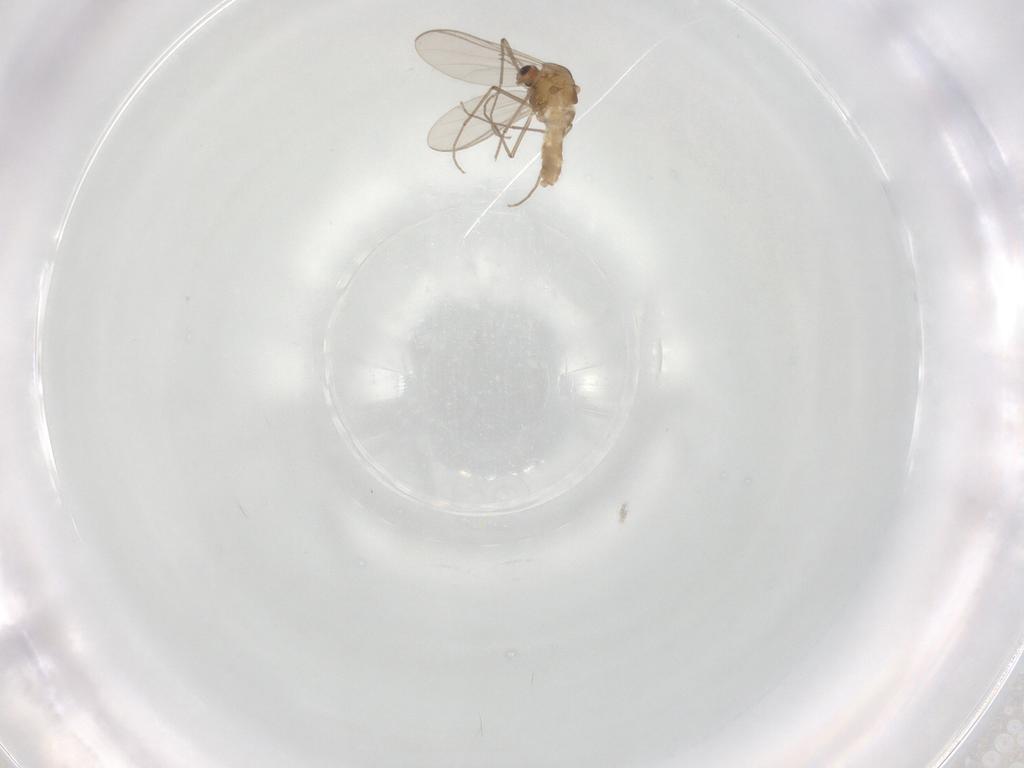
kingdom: Animalia
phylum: Arthropoda
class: Insecta
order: Diptera
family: Chironomidae
